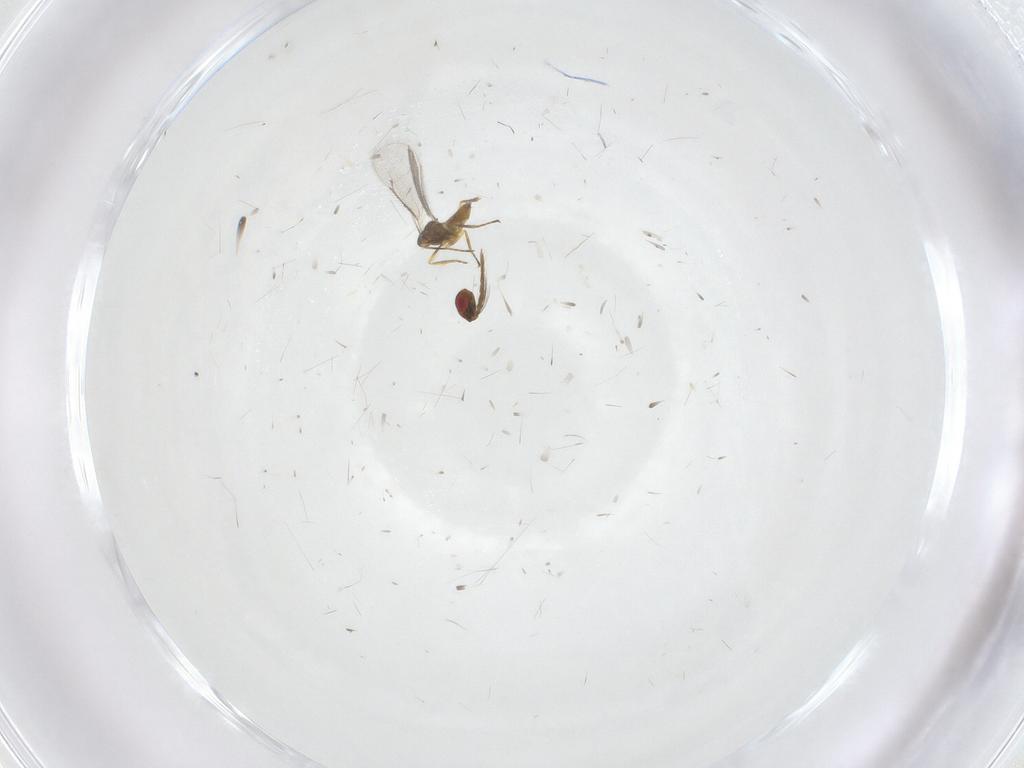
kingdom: Animalia
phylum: Arthropoda
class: Insecta
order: Hymenoptera
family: Eulophidae
